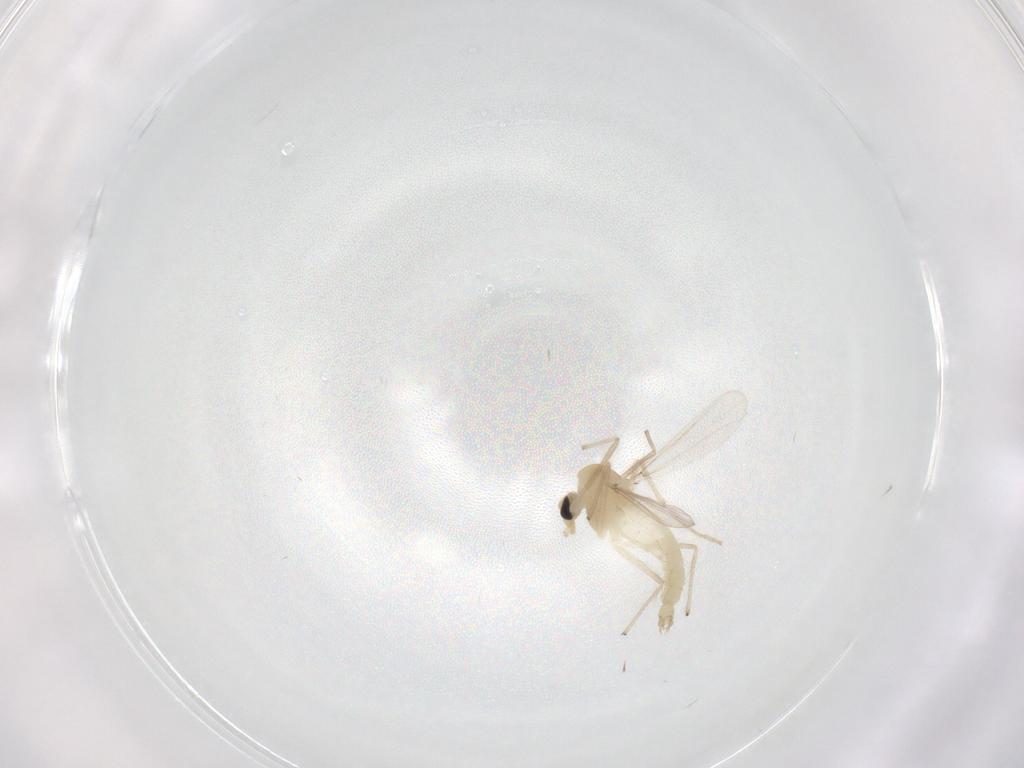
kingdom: Animalia
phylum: Arthropoda
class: Insecta
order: Diptera
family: Chironomidae
